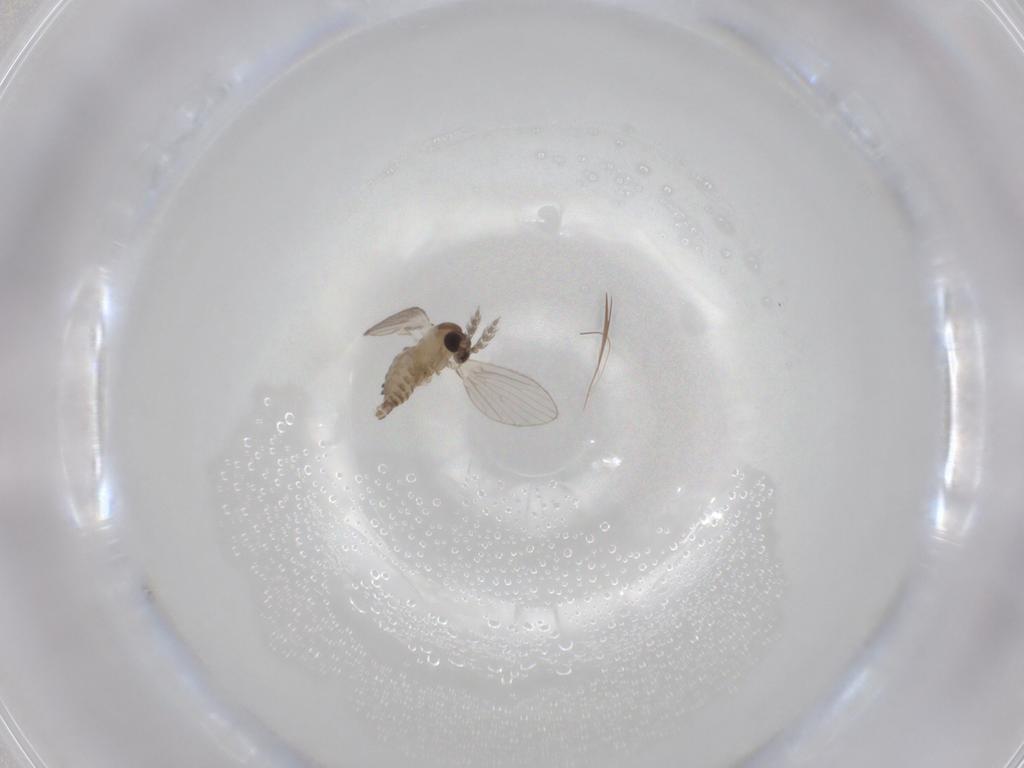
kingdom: Animalia
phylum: Arthropoda
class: Insecta
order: Diptera
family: Psychodidae
